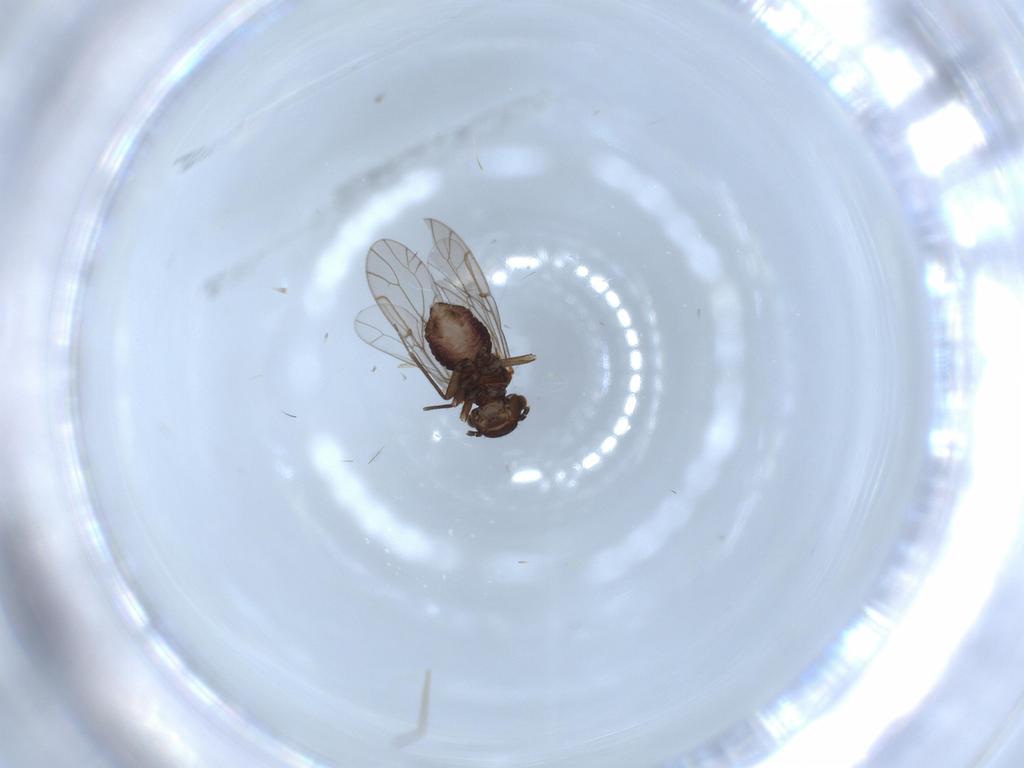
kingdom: Animalia
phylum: Arthropoda
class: Insecta
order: Psocodea
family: Ectopsocidae
